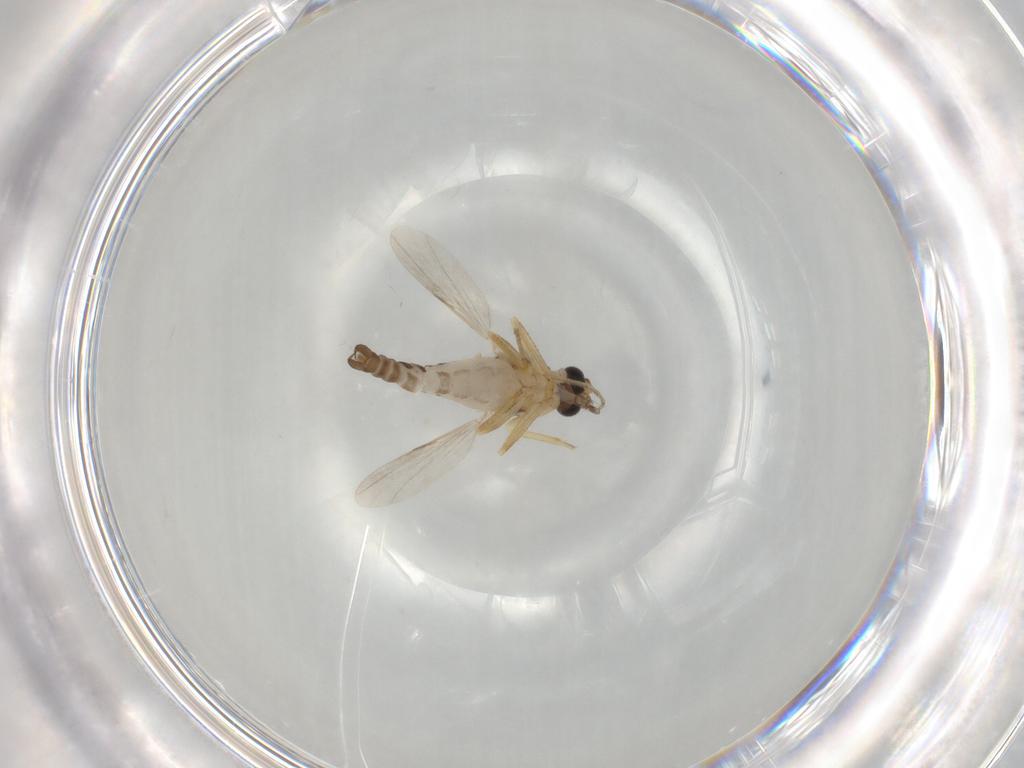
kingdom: Animalia
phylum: Arthropoda
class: Insecta
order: Diptera
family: Ceratopogonidae
